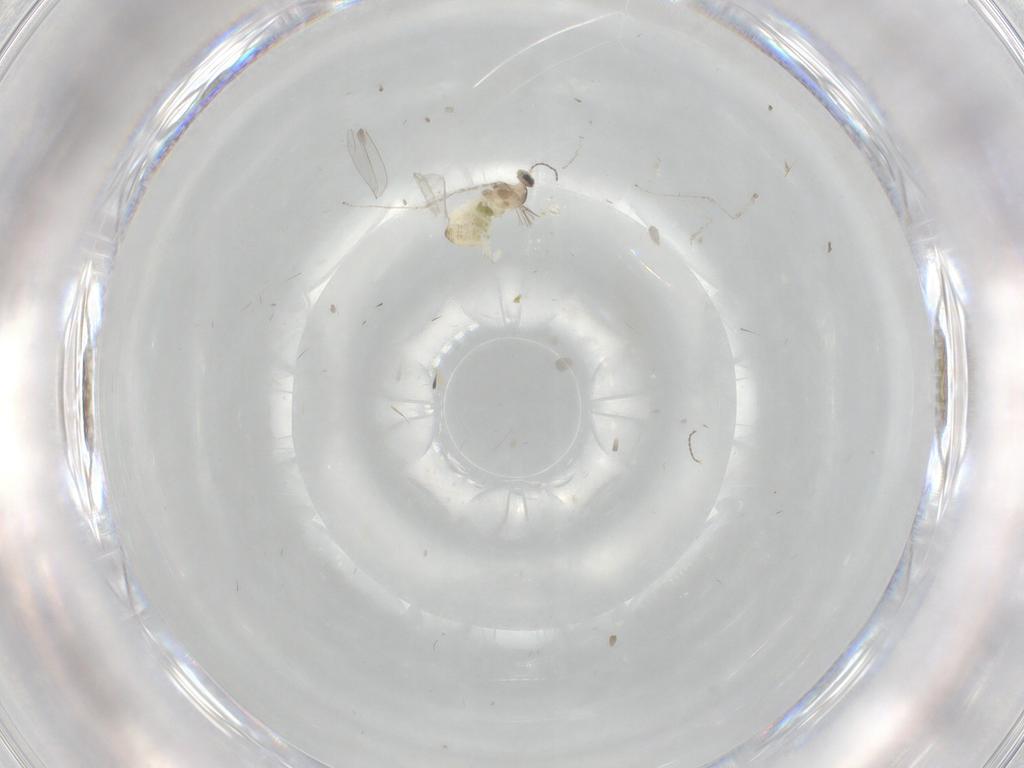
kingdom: Animalia
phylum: Arthropoda
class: Insecta
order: Diptera
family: Cecidomyiidae
